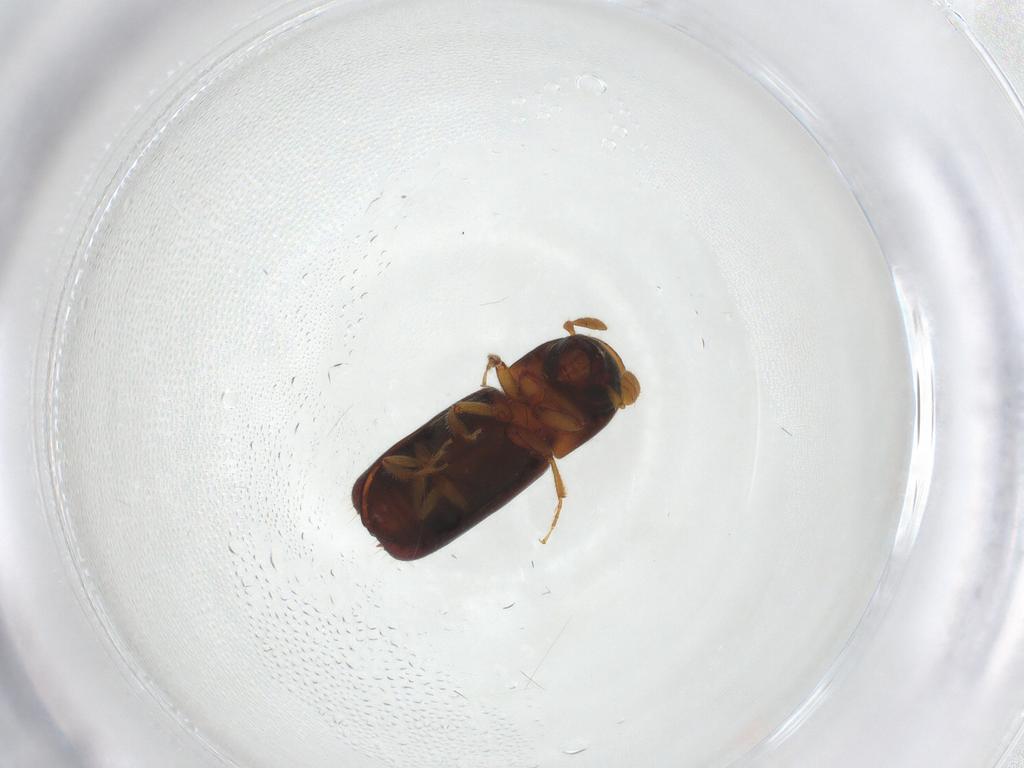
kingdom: Animalia
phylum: Arthropoda
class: Insecta
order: Coleoptera
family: Curculionidae
